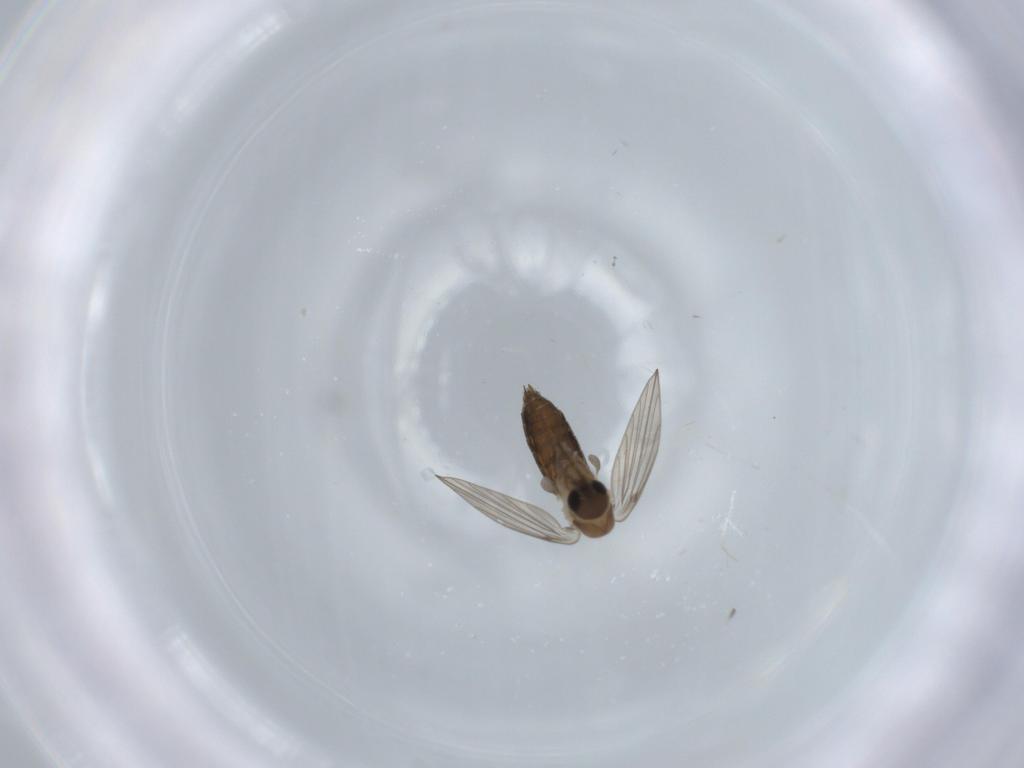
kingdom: Animalia
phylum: Arthropoda
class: Insecta
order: Diptera
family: Psychodidae
